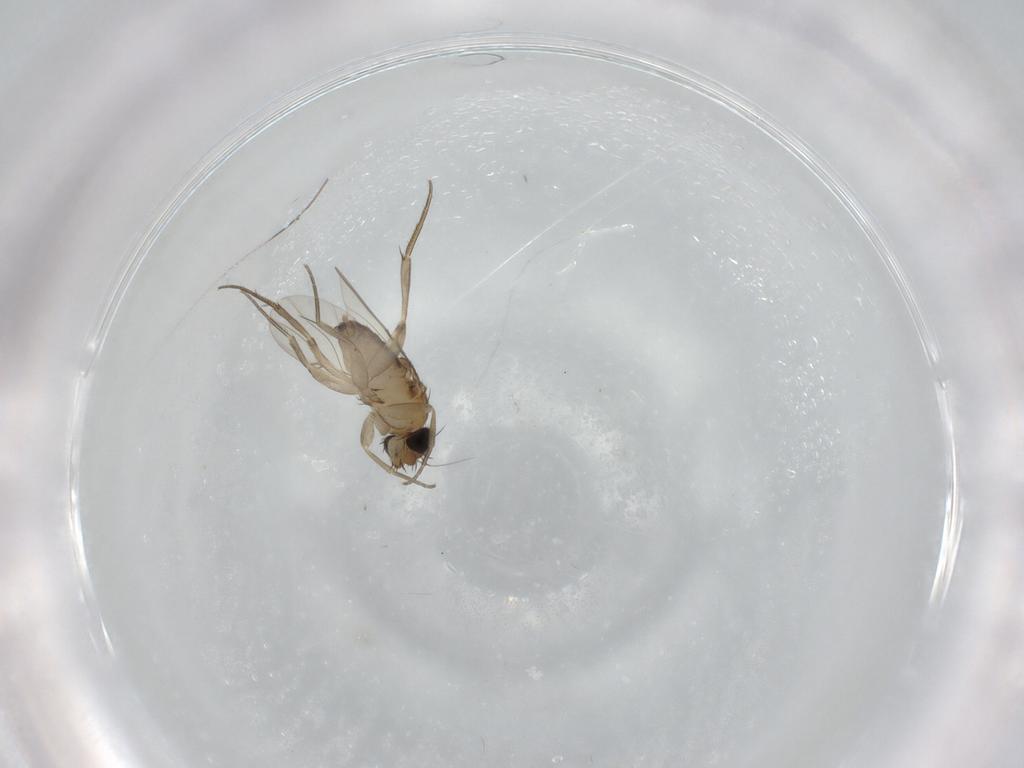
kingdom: Animalia
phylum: Arthropoda
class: Insecta
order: Diptera
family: Phoridae
